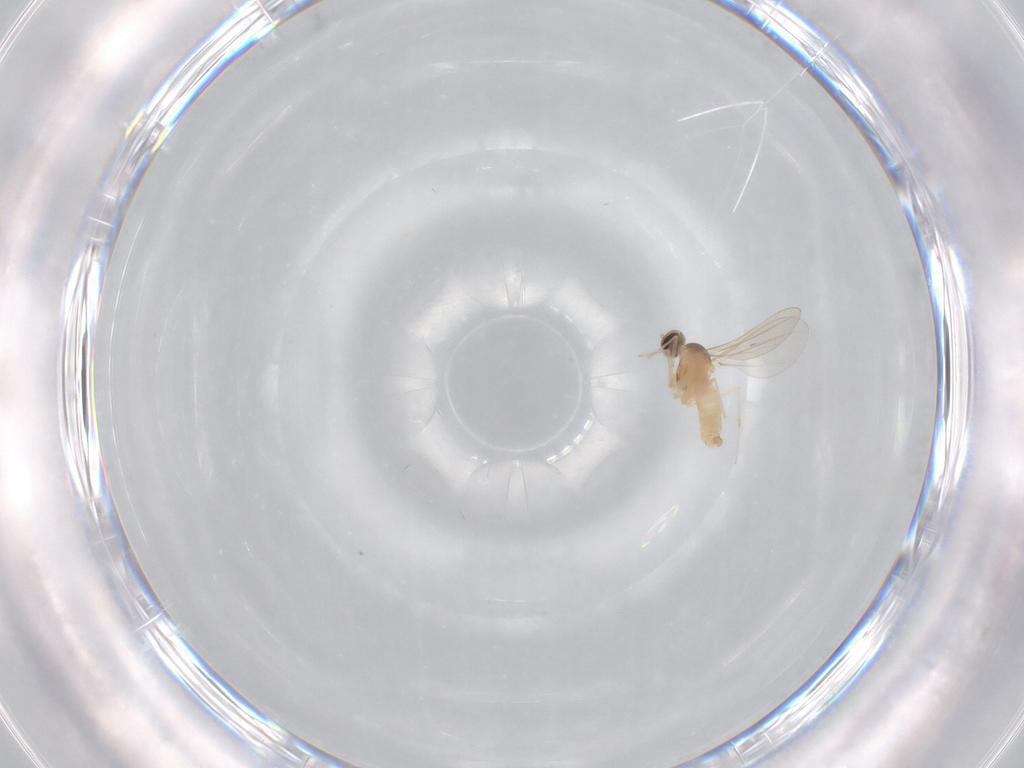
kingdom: Animalia
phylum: Arthropoda
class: Insecta
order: Diptera
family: Cecidomyiidae
